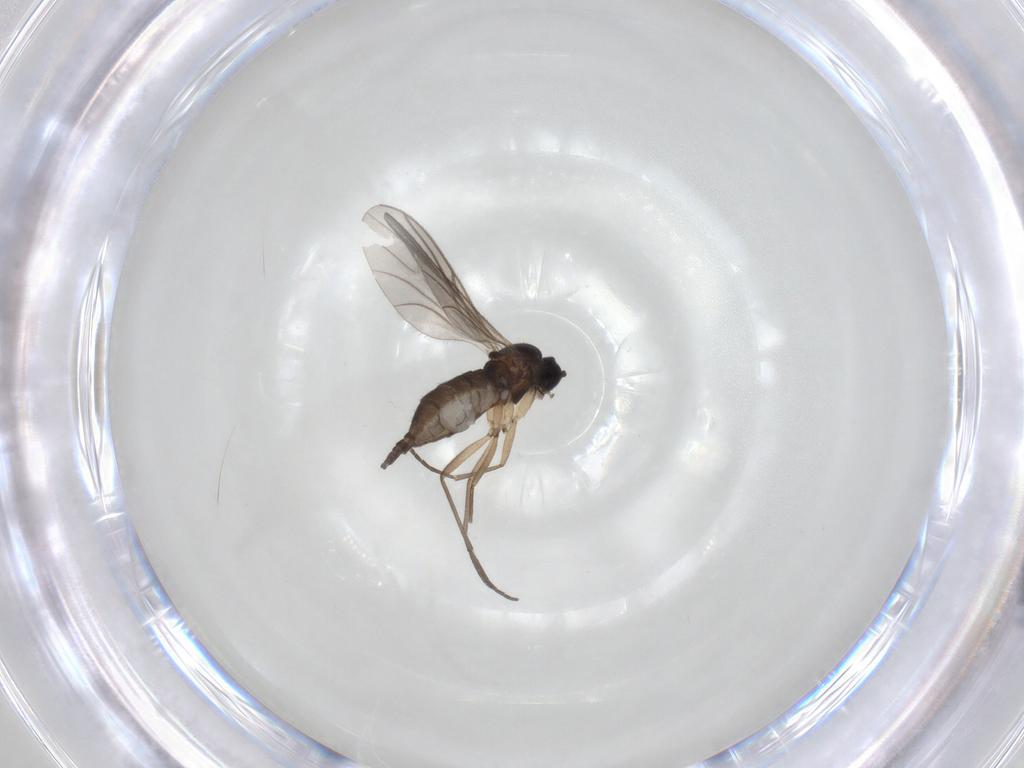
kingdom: Animalia
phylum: Arthropoda
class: Insecta
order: Diptera
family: Sciaridae
